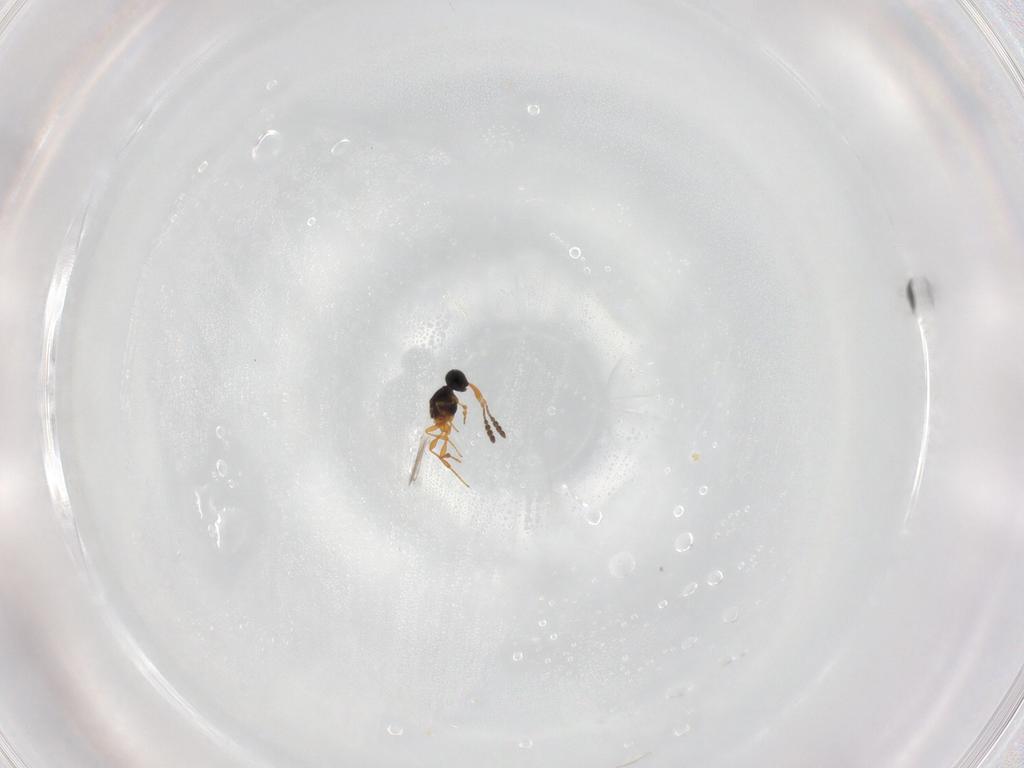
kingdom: Animalia
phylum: Arthropoda
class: Insecta
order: Hymenoptera
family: Platygastridae
